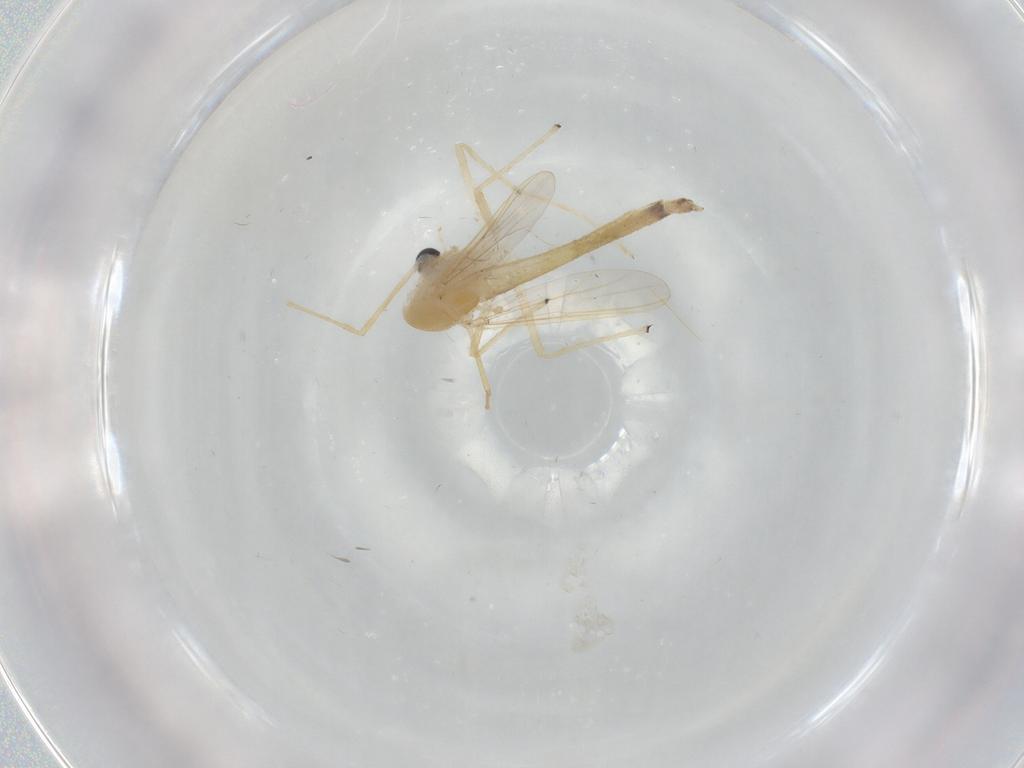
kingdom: Animalia
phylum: Arthropoda
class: Insecta
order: Diptera
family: Chironomidae
